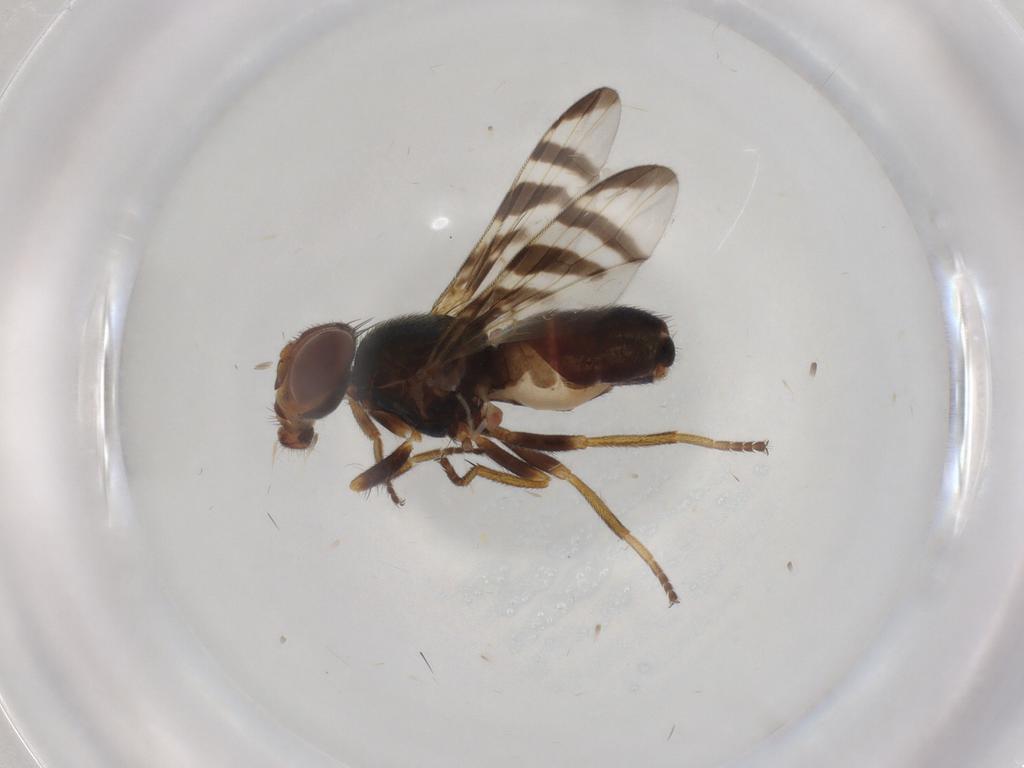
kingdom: Animalia
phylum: Arthropoda
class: Insecta
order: Diptera
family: Platystomatidae
